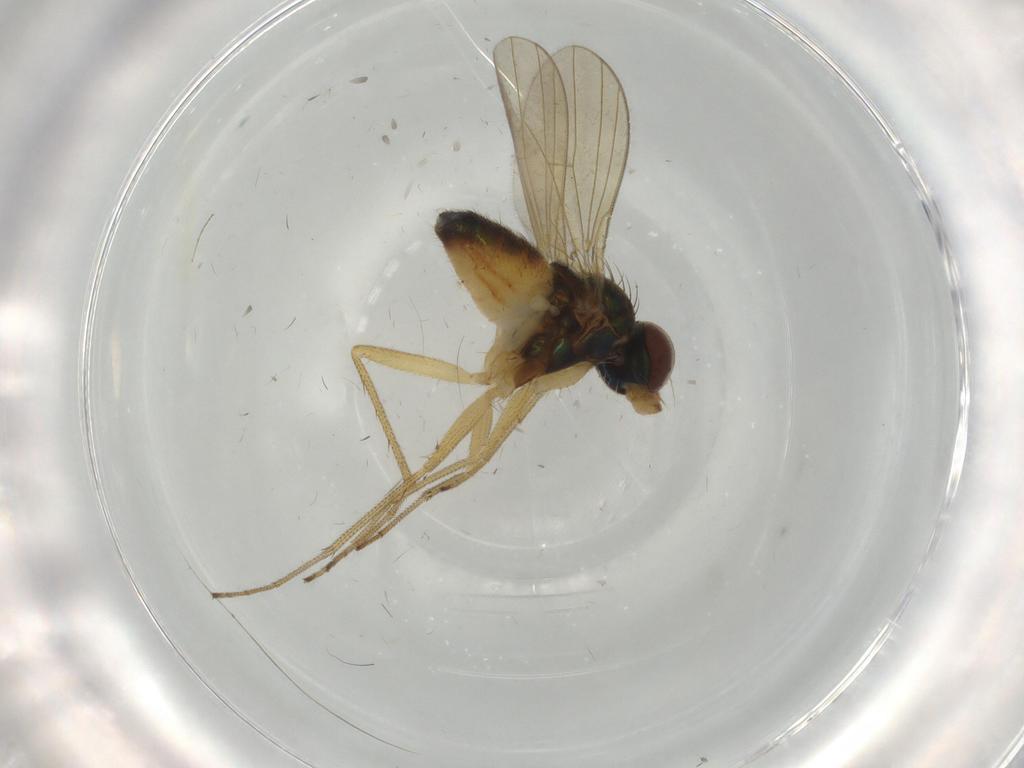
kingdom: Animalia
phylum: Arthropoda
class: Insecta
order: Diptera
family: Dolichopodidae
